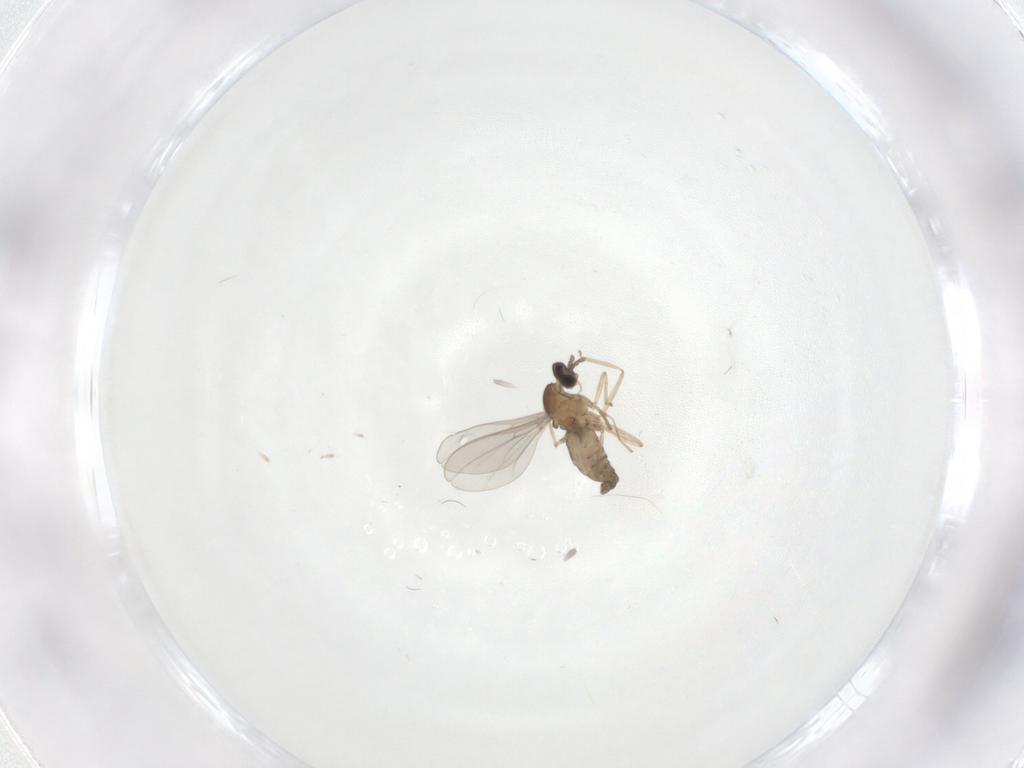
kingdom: Animalia
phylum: Arthropoda
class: Insecta
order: Diptera
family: Cecidomyiidae
